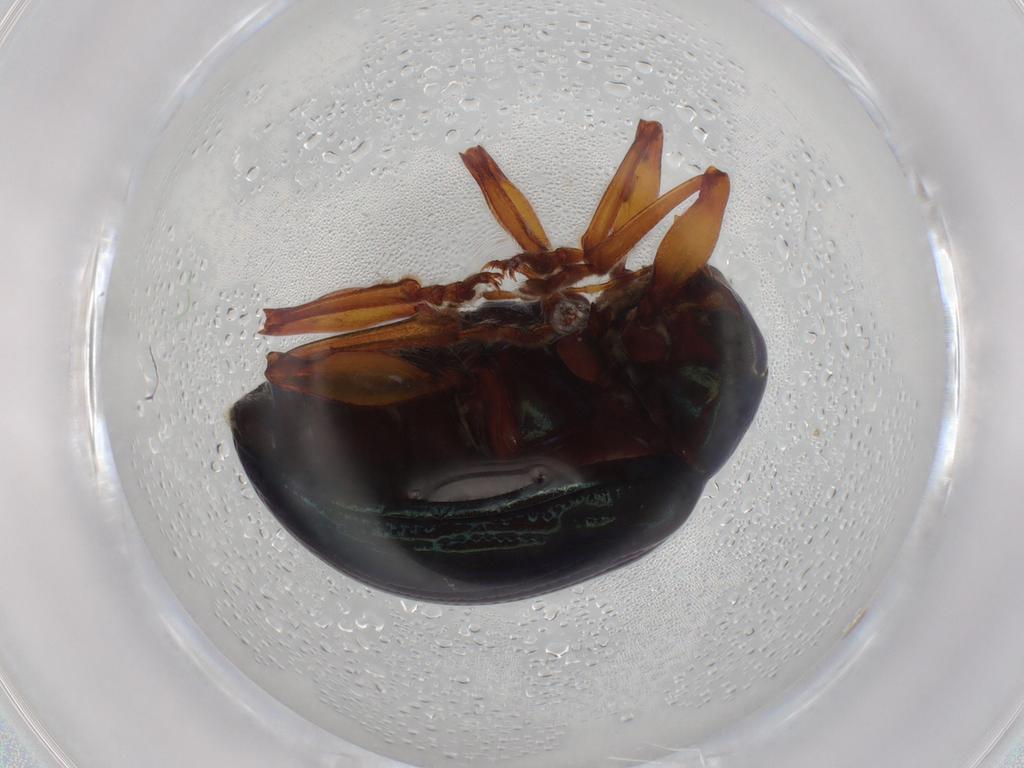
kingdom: Animalia
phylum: Arthropoda
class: Insecta
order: Coleoptera
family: Chrysomelidae
